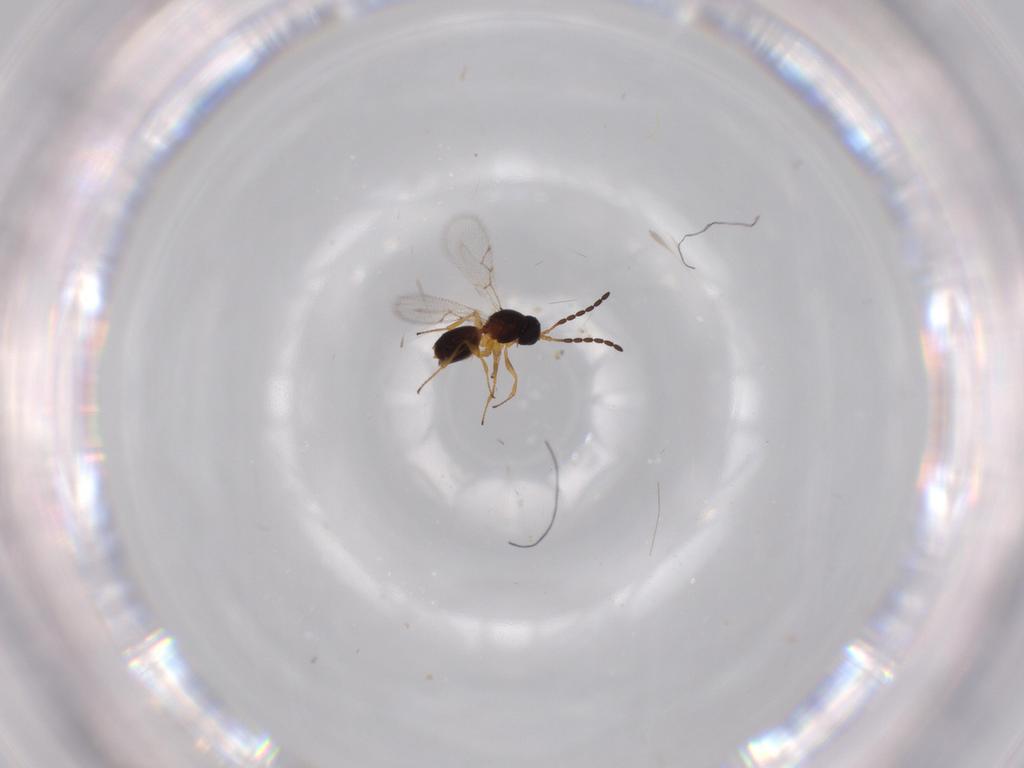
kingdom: Animalia
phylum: Arthropoda
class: Insecta
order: Hymenoptera
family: Figitidae
